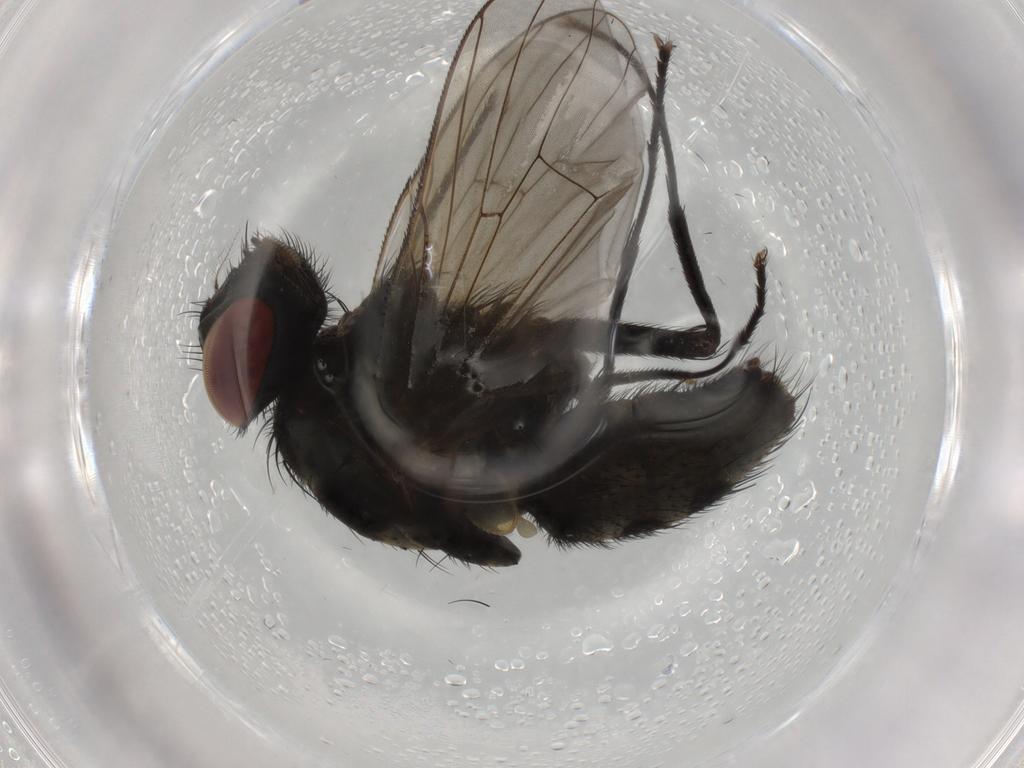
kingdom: Animalia
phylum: Arthropoda
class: Insecta
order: Diptera
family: Muscidae
